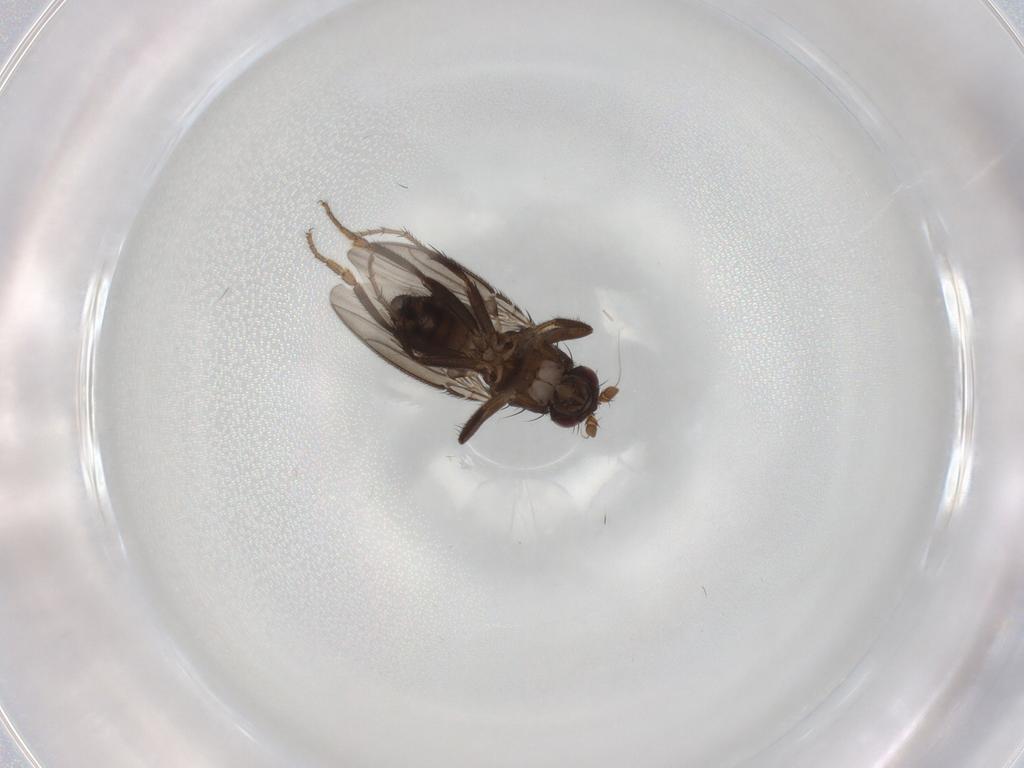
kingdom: Animalia
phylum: Arthropoda
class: Insecta
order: Diptera
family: Sphaeroceridae
